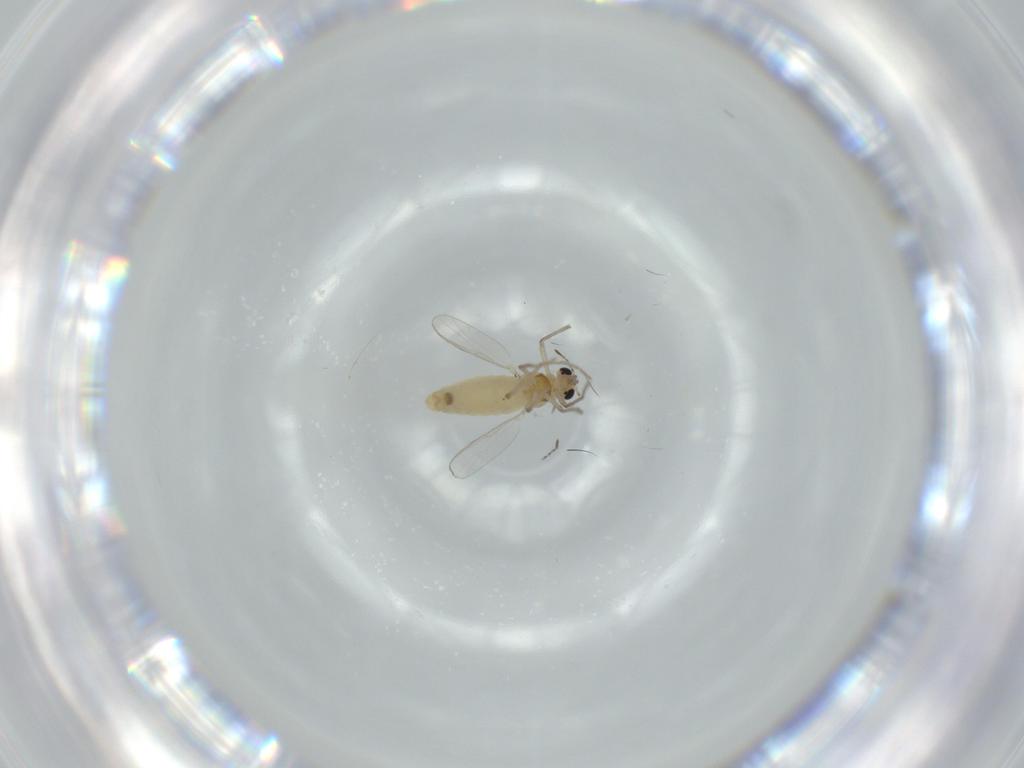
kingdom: Animalia
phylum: Arthropoda
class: Insecta
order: Diptera
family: Chironomidae
